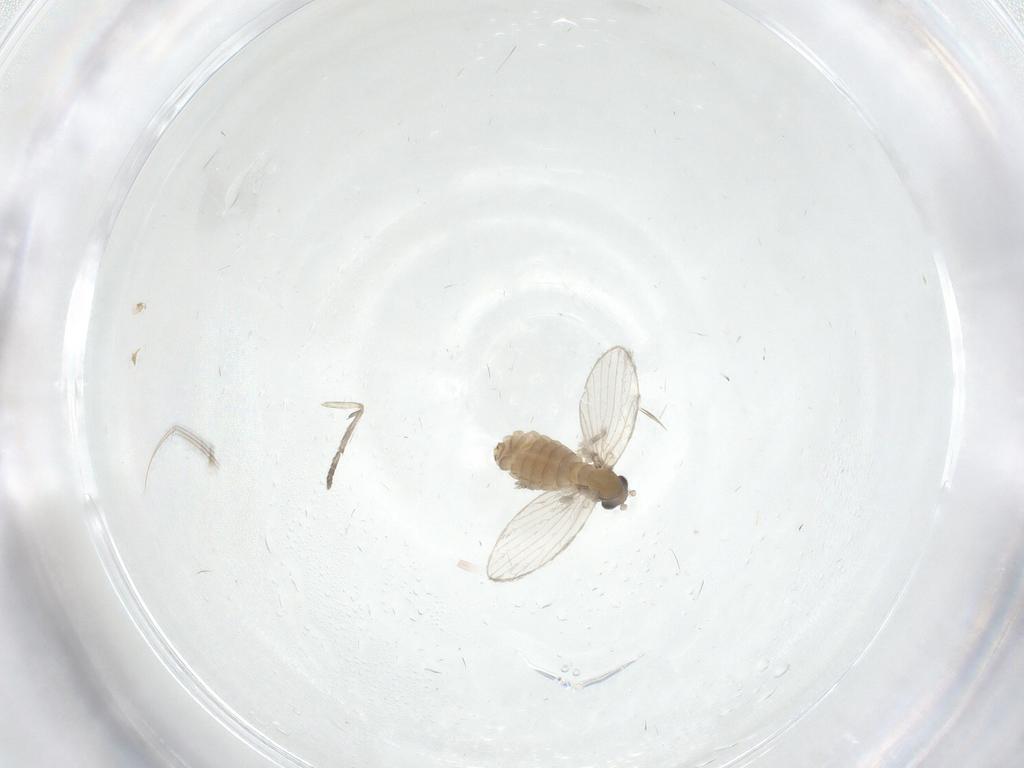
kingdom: Animalia
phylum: Arthropoda
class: Insecta
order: Diptera
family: Psychodidae
